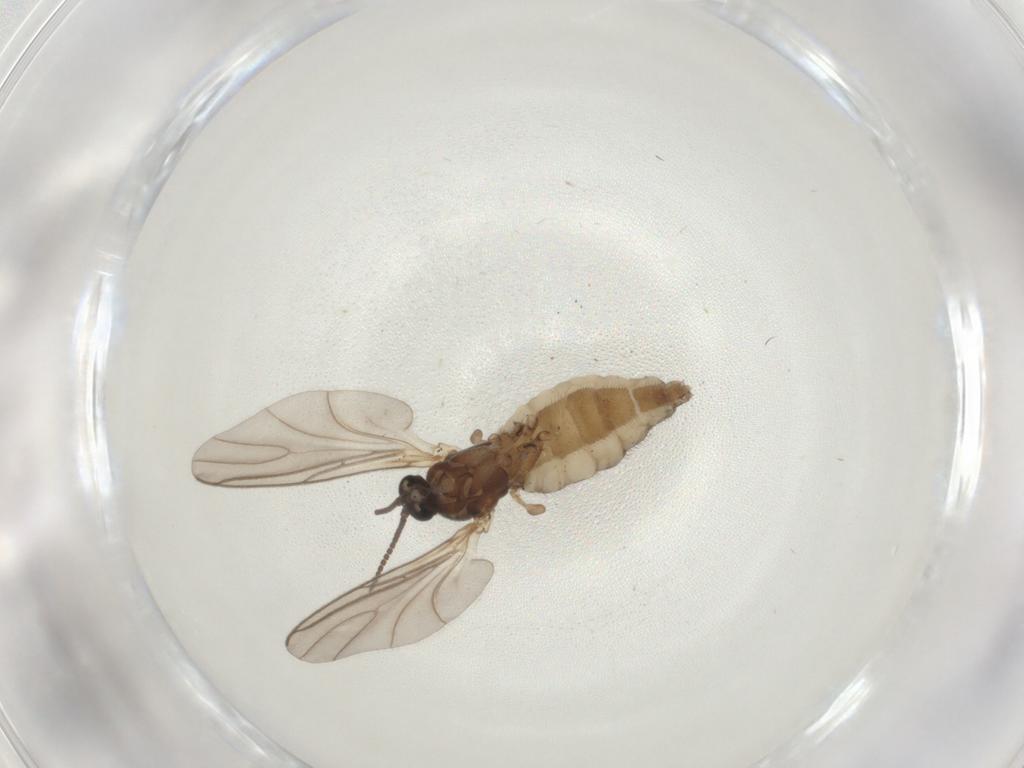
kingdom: Animalia
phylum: Arthropoda
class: Insecta
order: Diptera
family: Sciaridae
